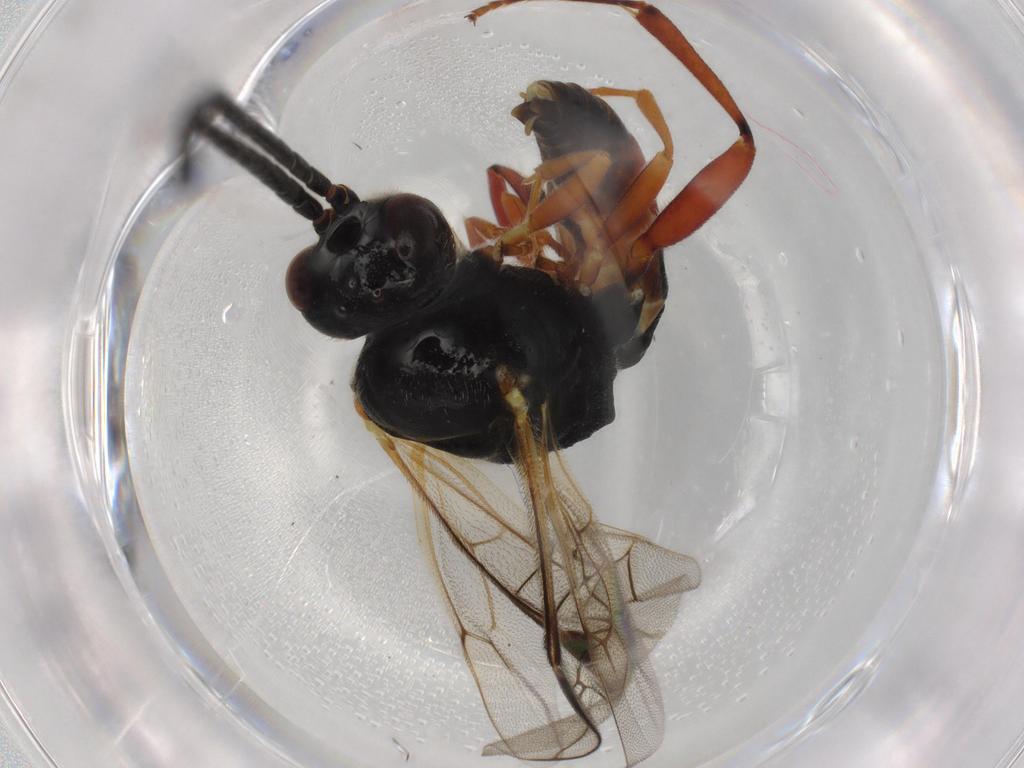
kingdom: Animalia
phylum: Arthropoda
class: Insecta
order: Hymenoptera
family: Ichneumonidae
